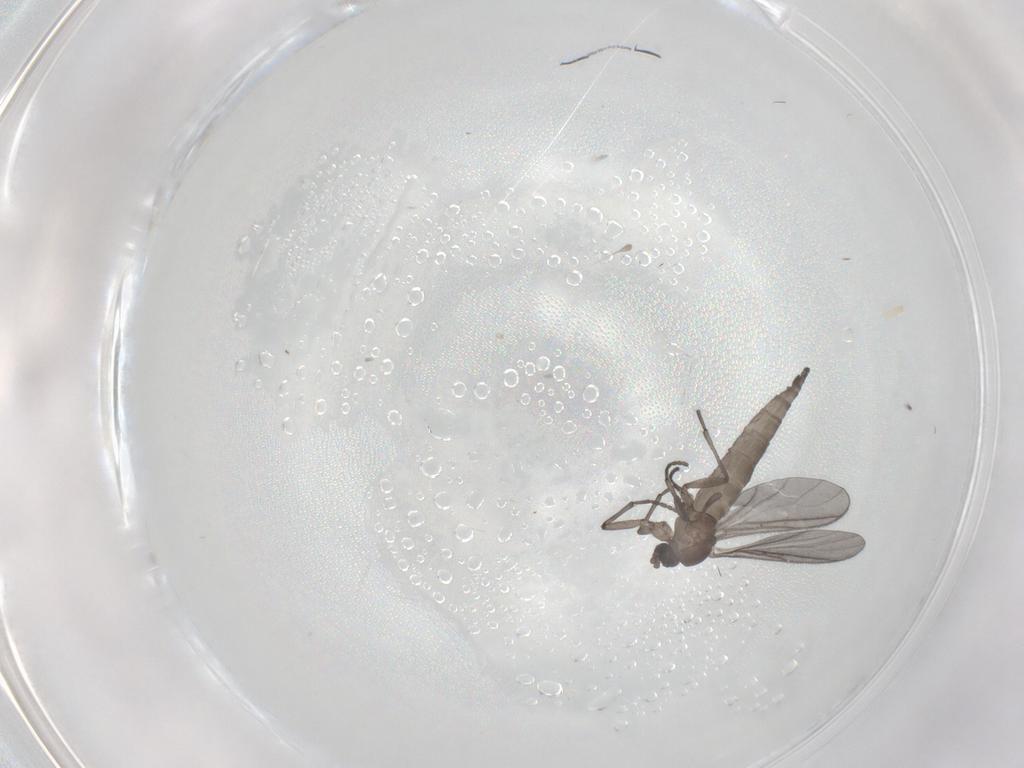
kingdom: Animalia
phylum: Arthropoda
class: Insecta
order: Diptera
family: Sciaridae
